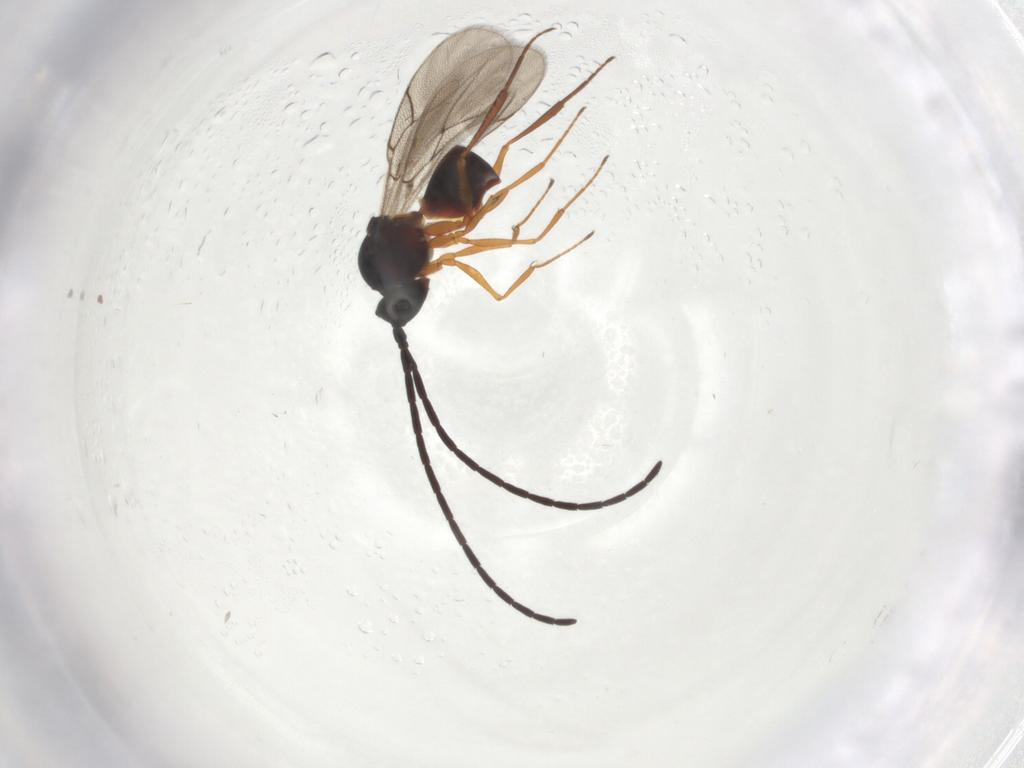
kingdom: Animalia
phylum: Arthropoda
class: Insecta
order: Hymenoptera
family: Figitidae
